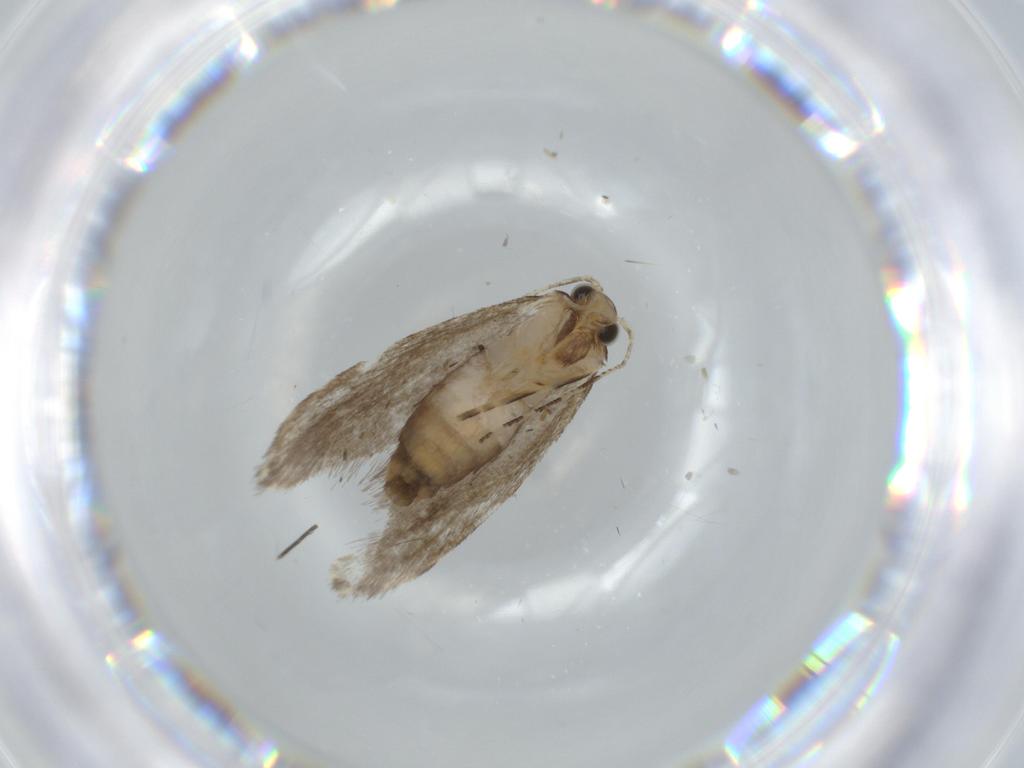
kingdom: Animalia
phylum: Arthropoda
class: Insecta
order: Lepidoptera
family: Tineidae
